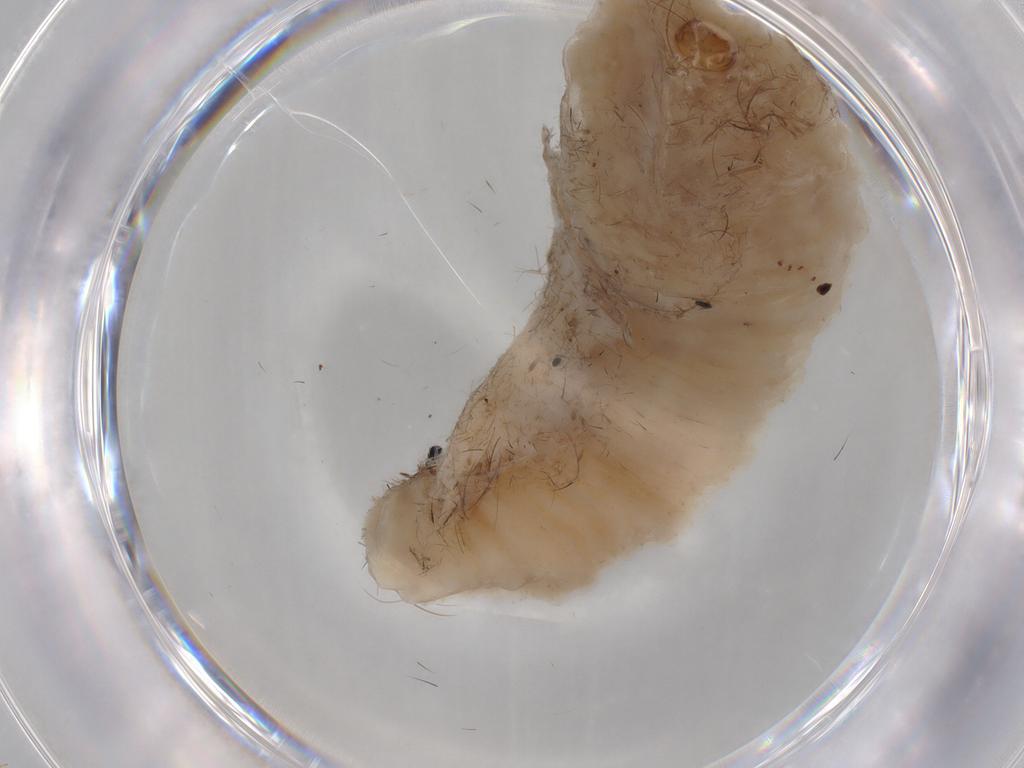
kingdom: Animalia
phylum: Arthropoda
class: Insecta
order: Diptera
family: Syrphidae
